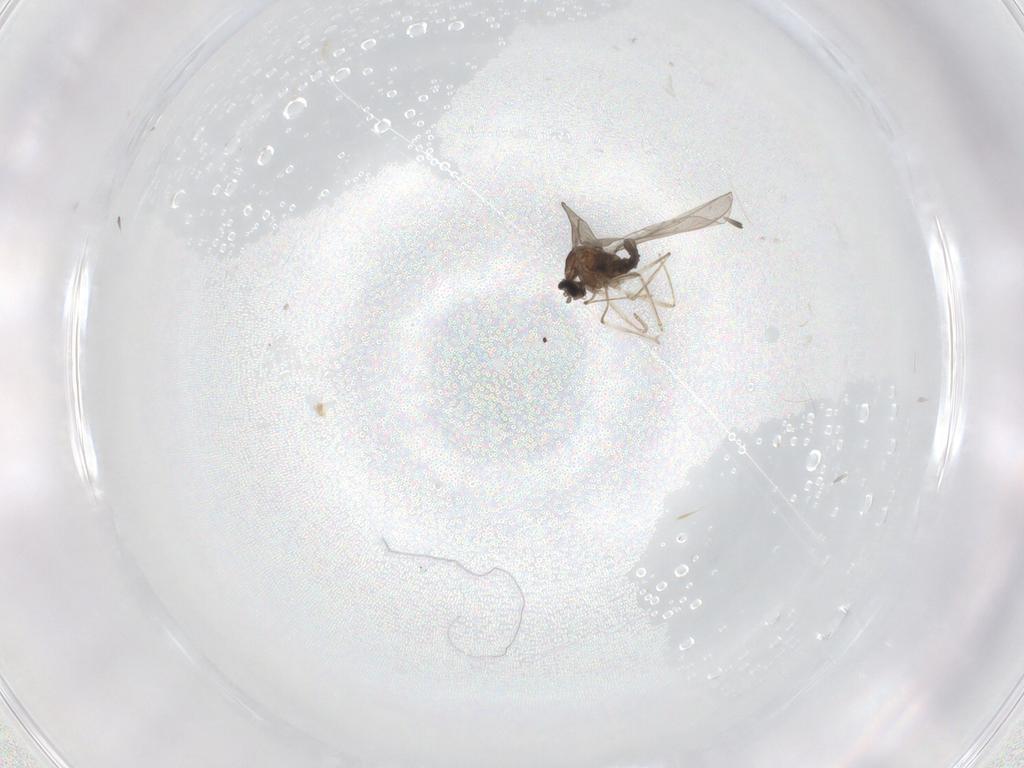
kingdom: Animalia
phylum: Arthropoda
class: Insecta
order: Diptera
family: Cecidomyiidae
